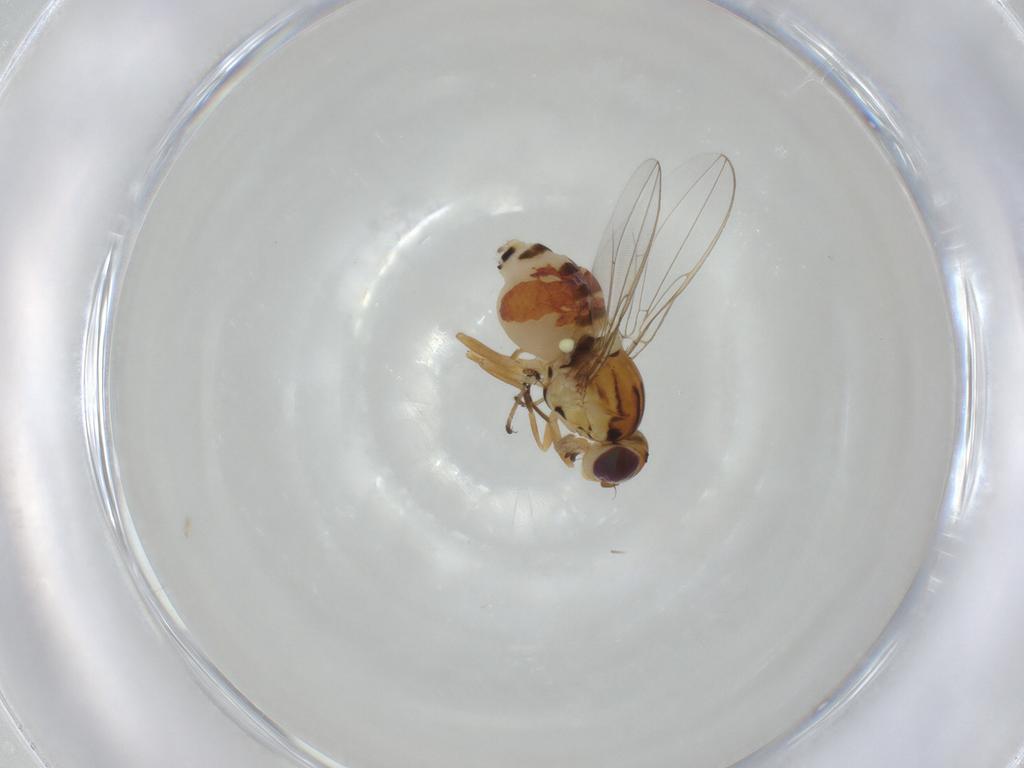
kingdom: Animalia
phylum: Arthropoda
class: Insecta
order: Diptera
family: Asteiidae
